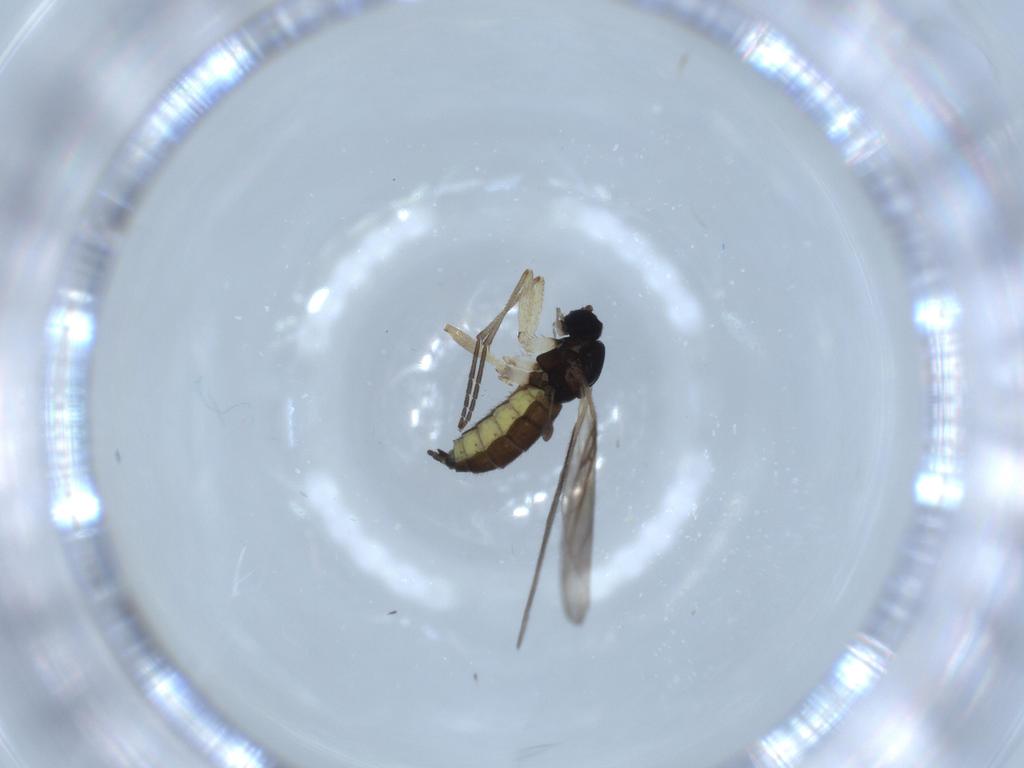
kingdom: Animalia
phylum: Arthropoda
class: Insecta
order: Diptera
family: Sciaridae
